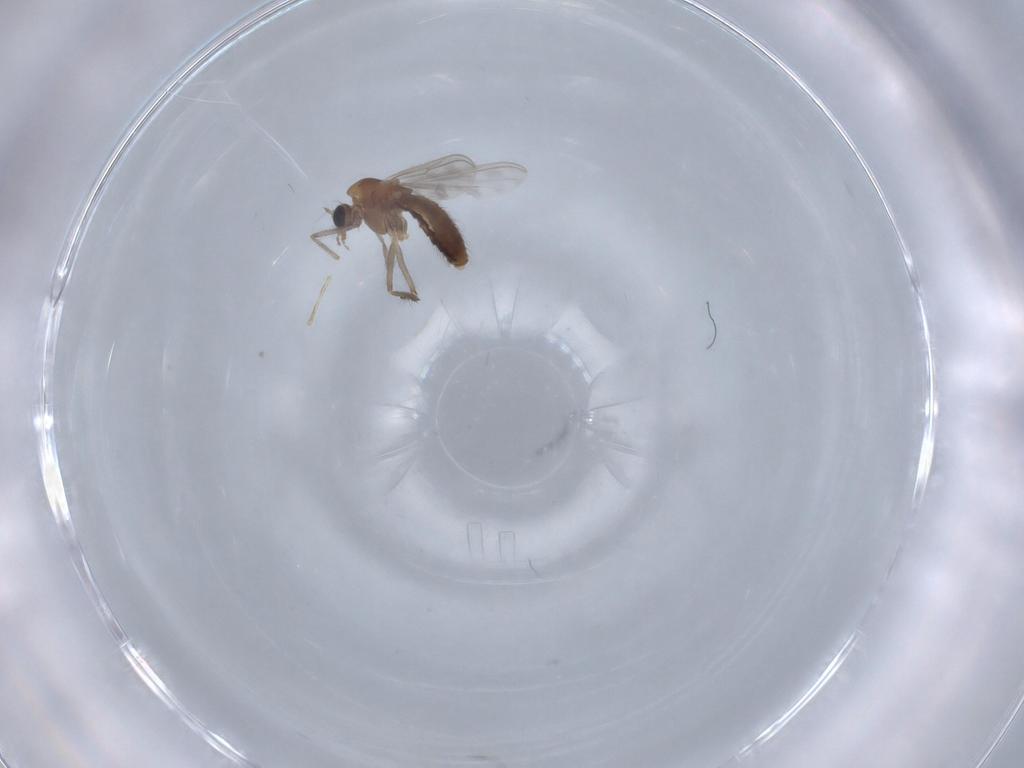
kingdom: Animalia
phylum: Arthropoda
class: Insecta
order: Diptera
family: Chironomidae
